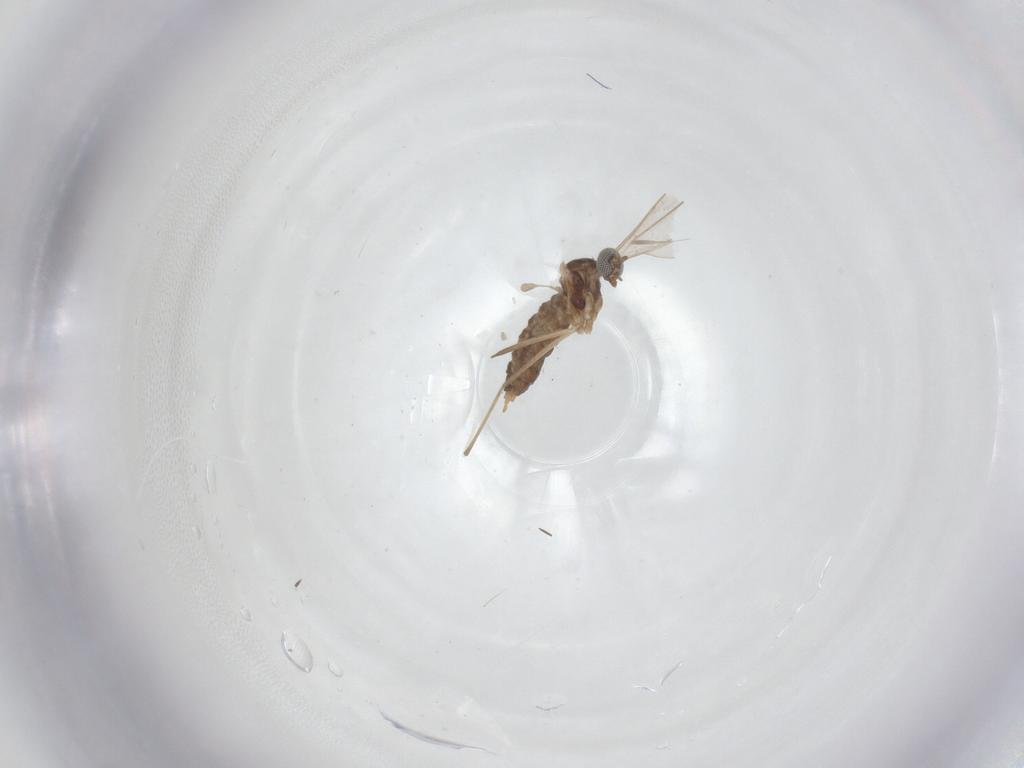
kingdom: Animalia
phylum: Arthropoda
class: Insecta
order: Diptera
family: Cecidomyiidae
